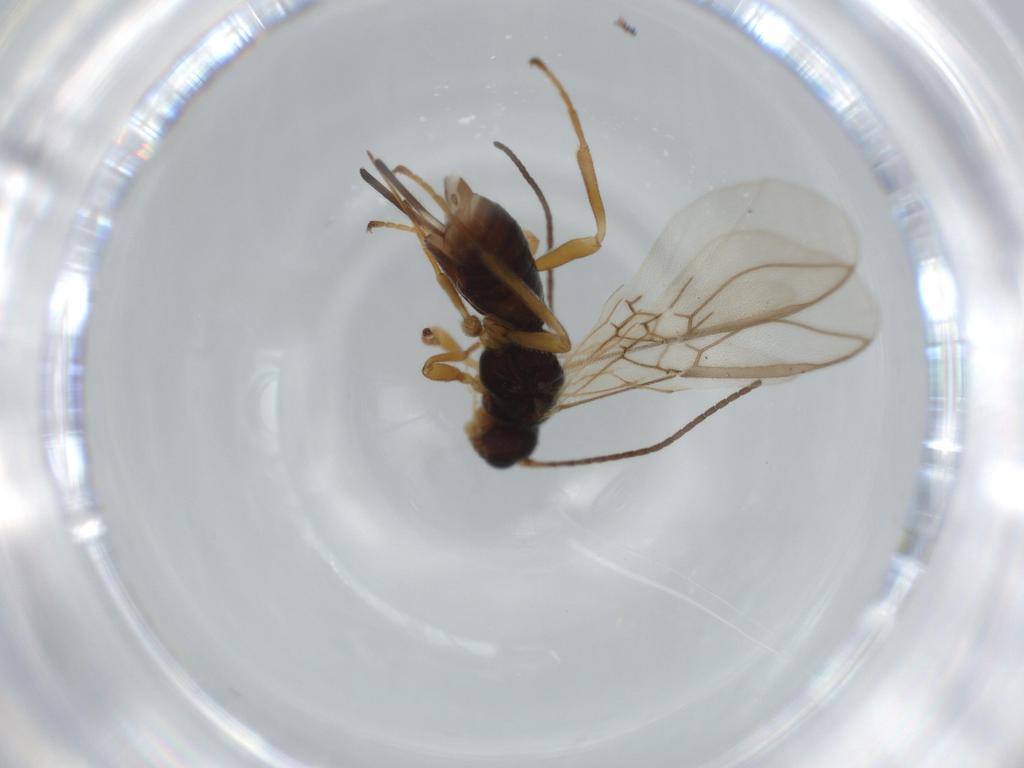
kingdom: Animalia
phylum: Arthropoda
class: Insecta
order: Hymenoptera
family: Braconidae
